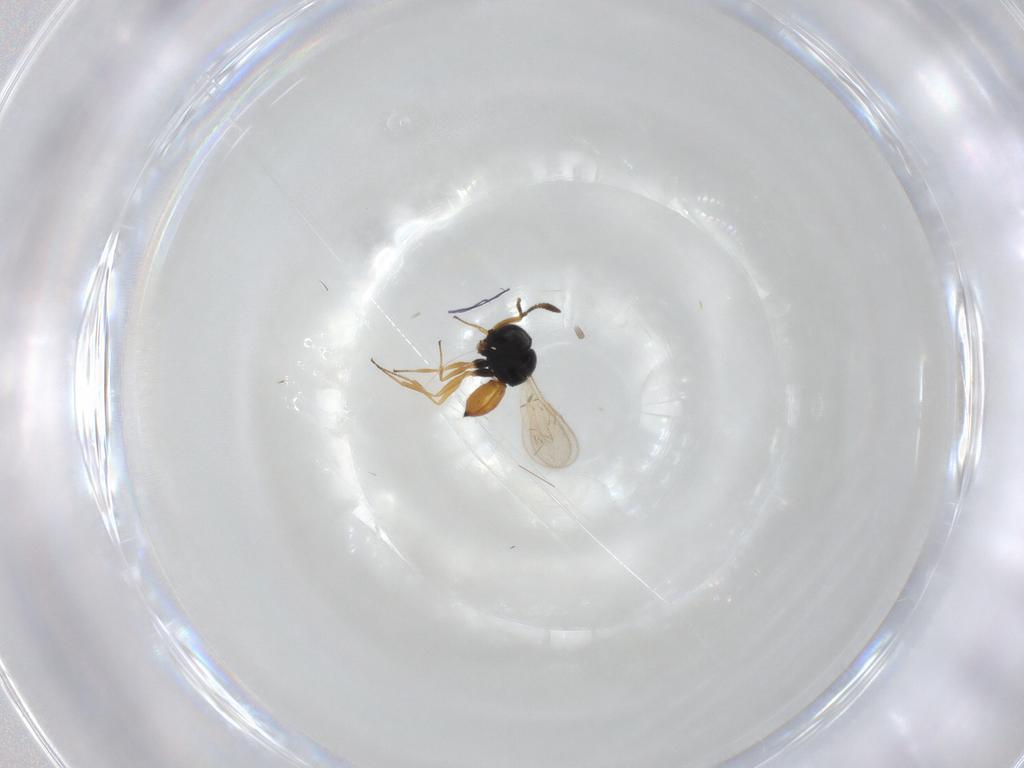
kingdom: Animalia
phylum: Arthropoda
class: Insecta
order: Hymenoptera
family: Scelionidae
